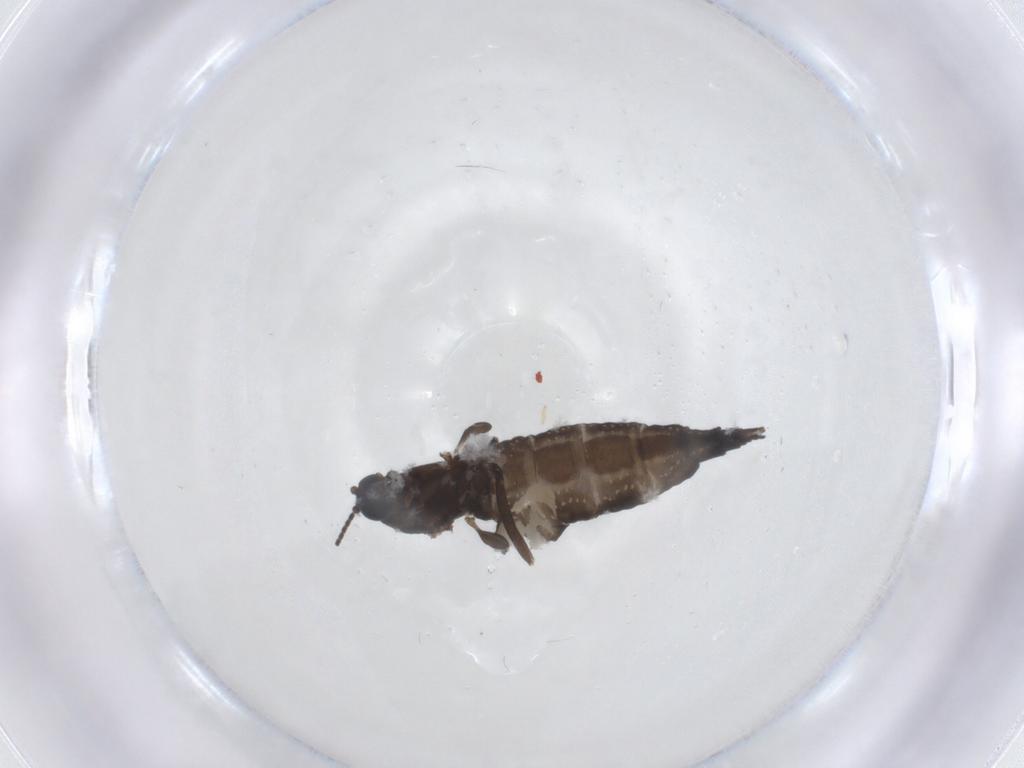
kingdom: Animalia
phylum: Arthropoda
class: Insecta
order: Diptera
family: Sciaridae
